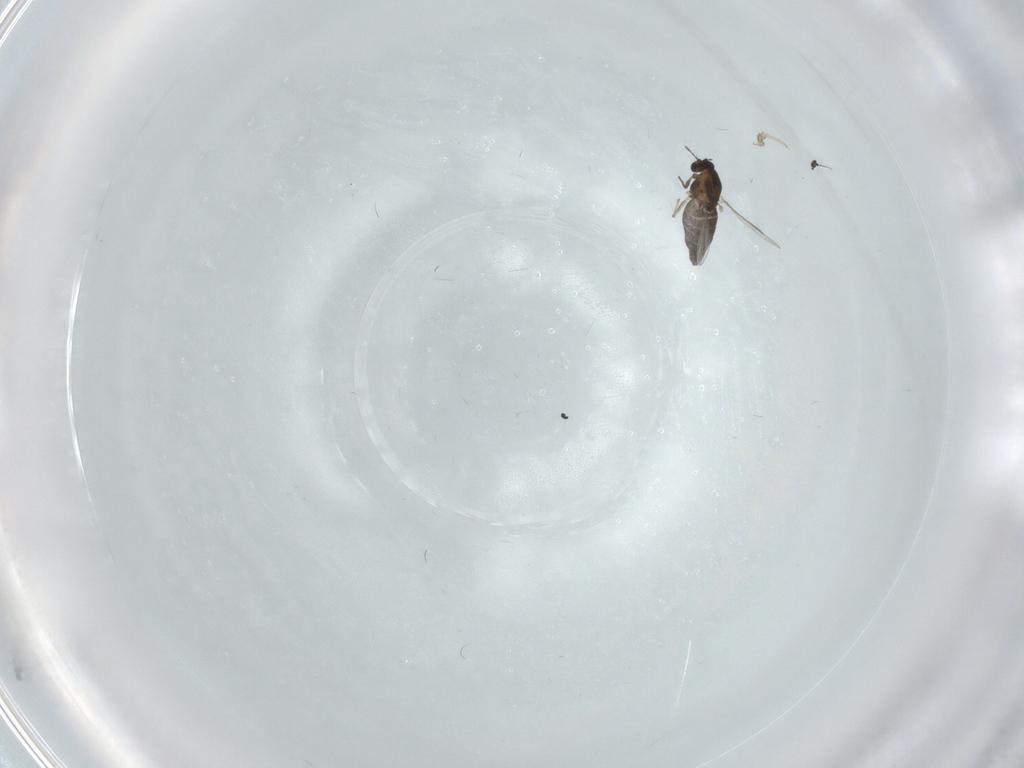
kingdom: Animalia
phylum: Arthropoda
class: Insecta
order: Diptera
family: Chironomidae
